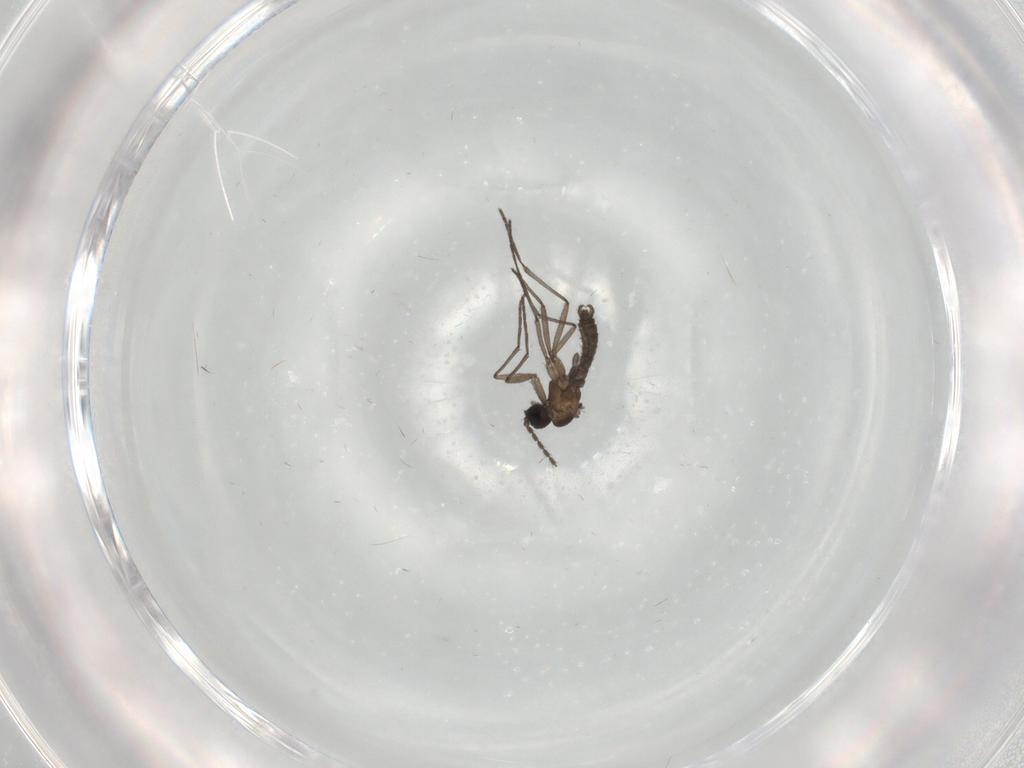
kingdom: Animalia
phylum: Arthropoda
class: Insecta
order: Diptera
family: Sciaridae
